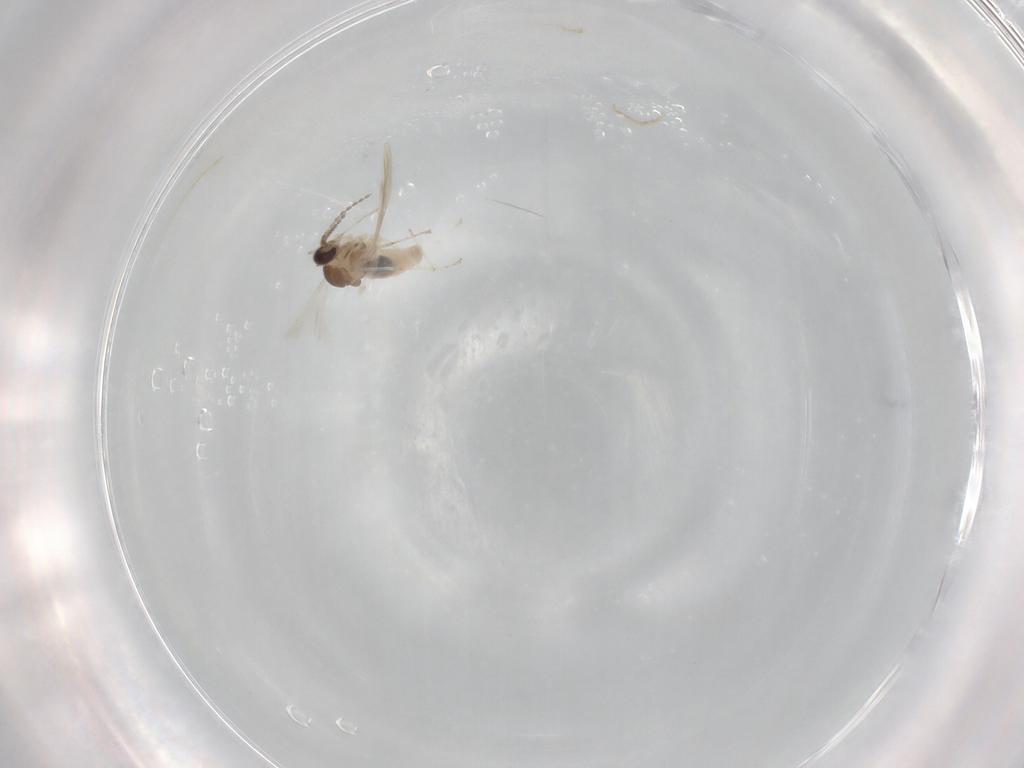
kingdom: Animalia
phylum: Arthropoda
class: Insecta
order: Diptera
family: Cecidomyiidae
